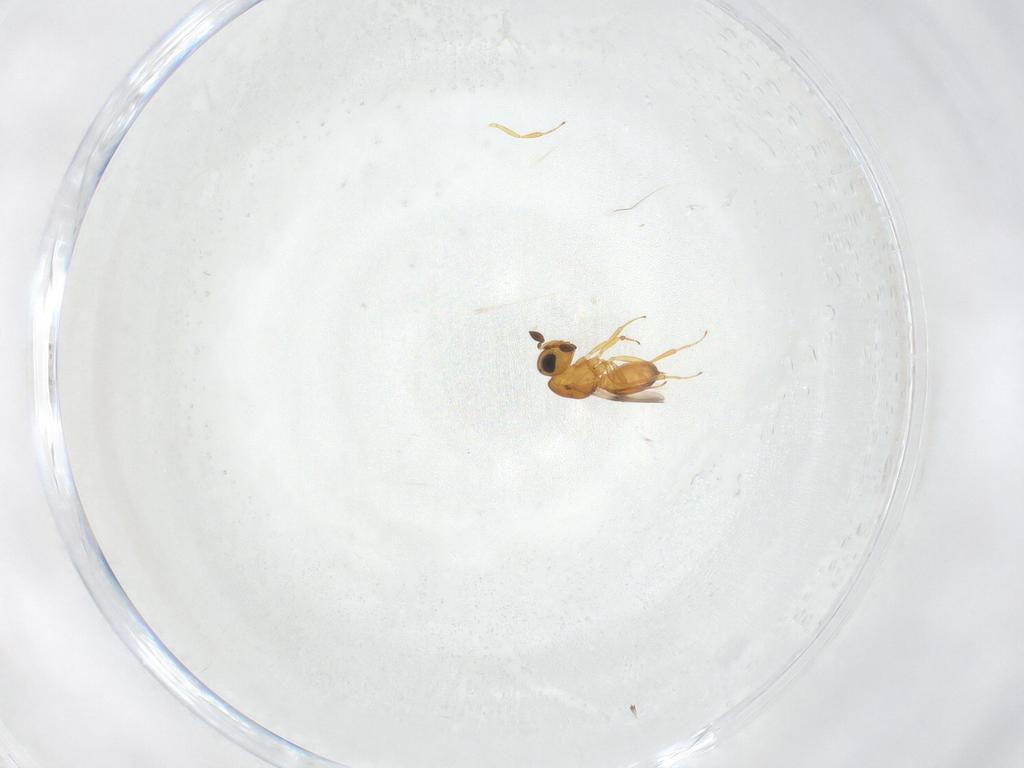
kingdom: Animalia
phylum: Arthropoda
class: Insecta
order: Hymenoptera
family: Scelionidae
